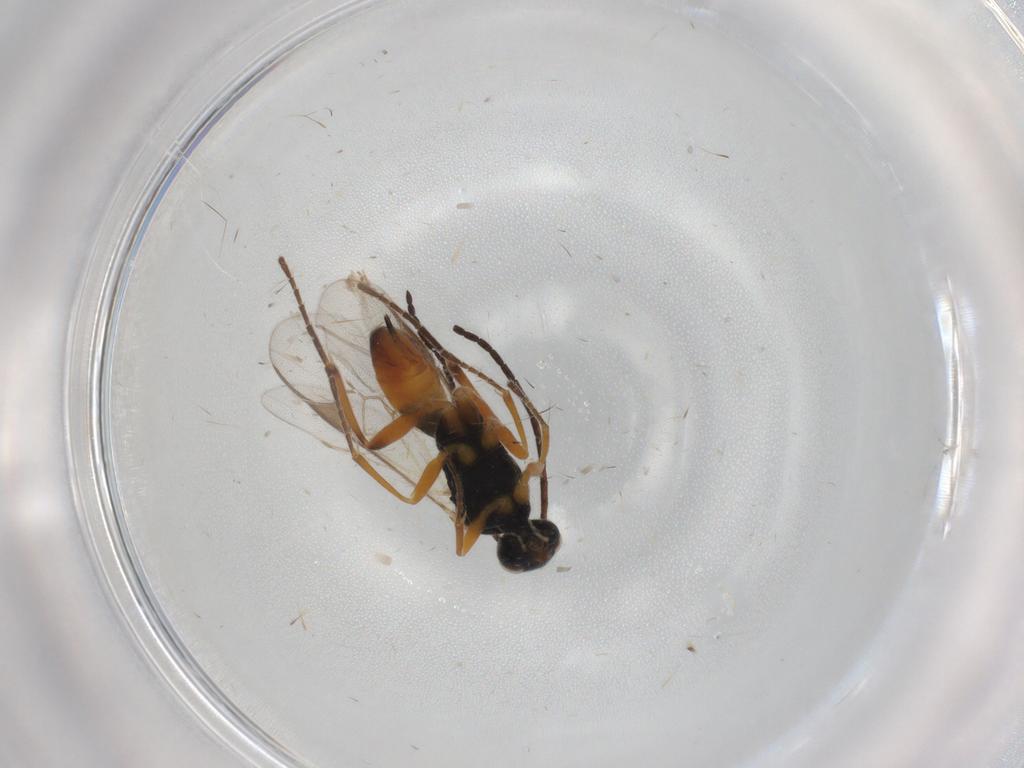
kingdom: Animalia
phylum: Arthropoda
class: Insecta
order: Hymenoptera
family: Braconidae
